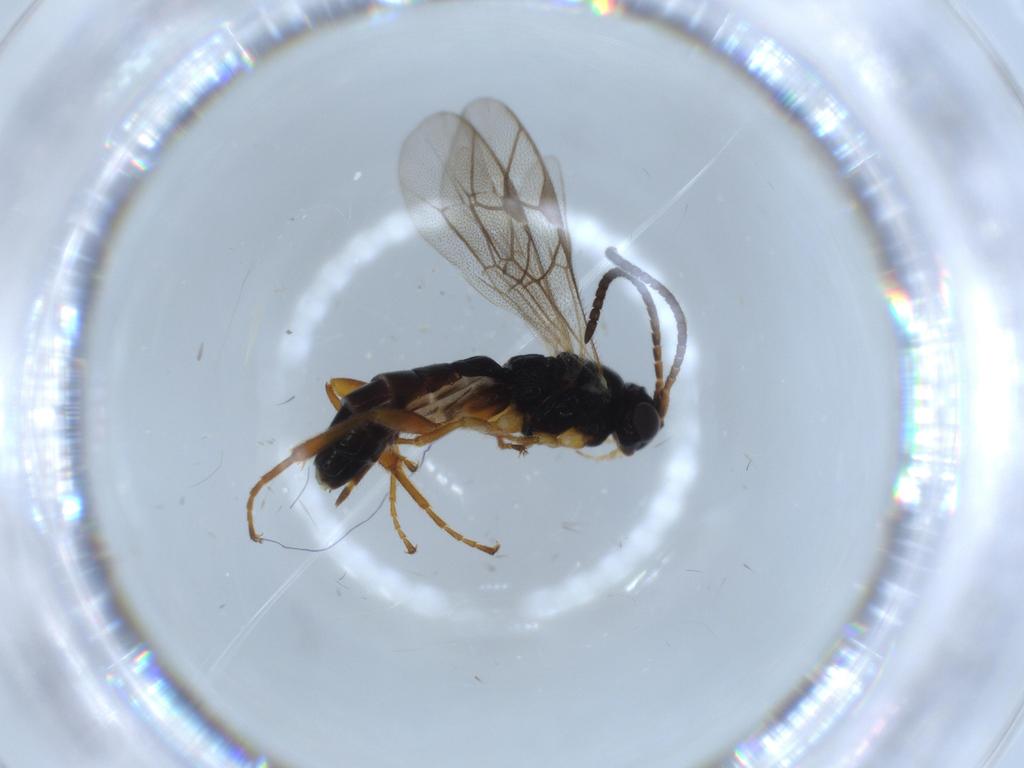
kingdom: Animalia
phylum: Arthropoda
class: Insecta
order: Hymenoptera
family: Ichneumonidae
